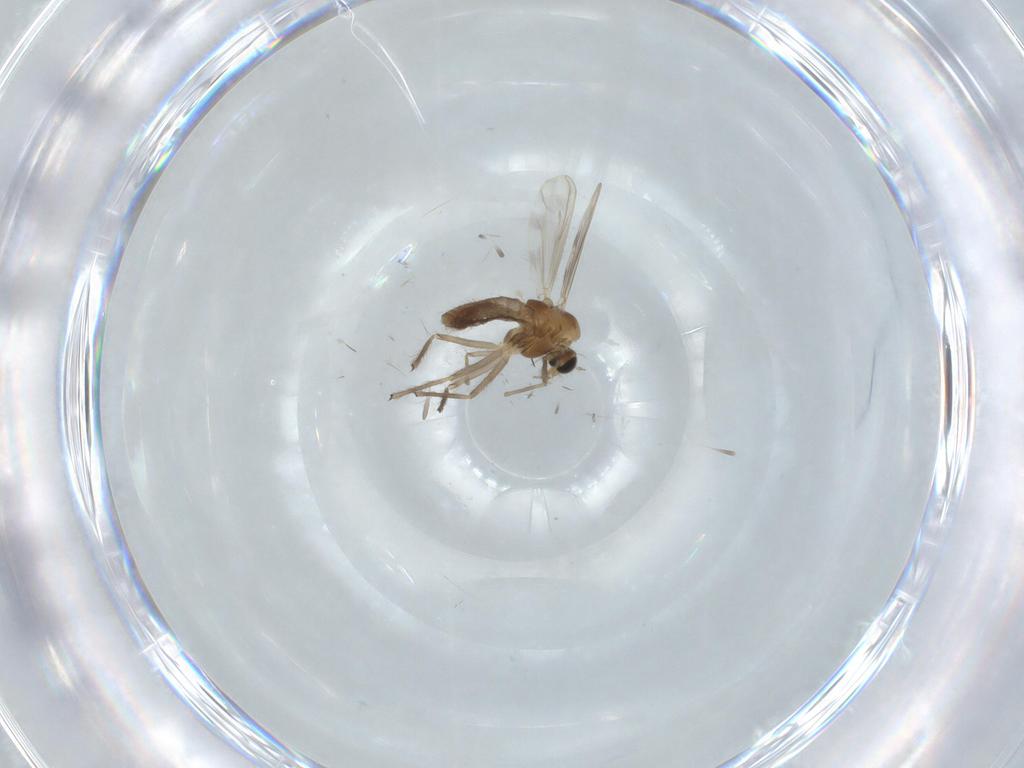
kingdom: Animalia
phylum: Arthropoda
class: Insecta
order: Diptera
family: Chironomidae
